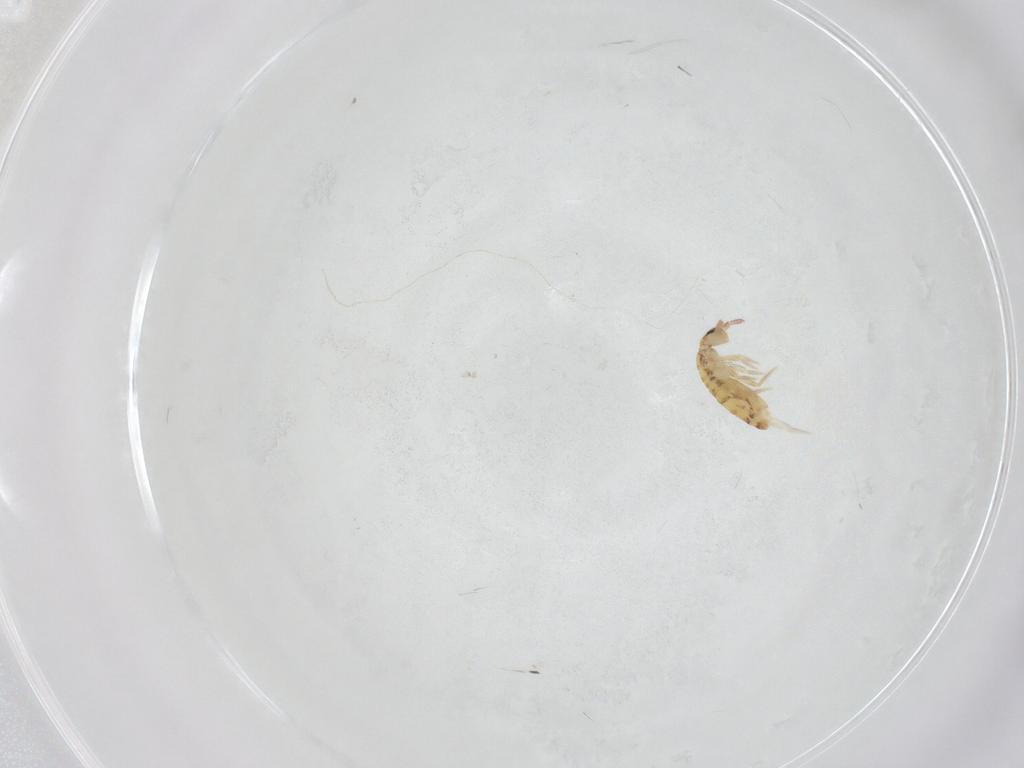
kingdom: Animalia
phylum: Arthropoda
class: Collembola
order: Entomobryomorpha
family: Entomobryidae
